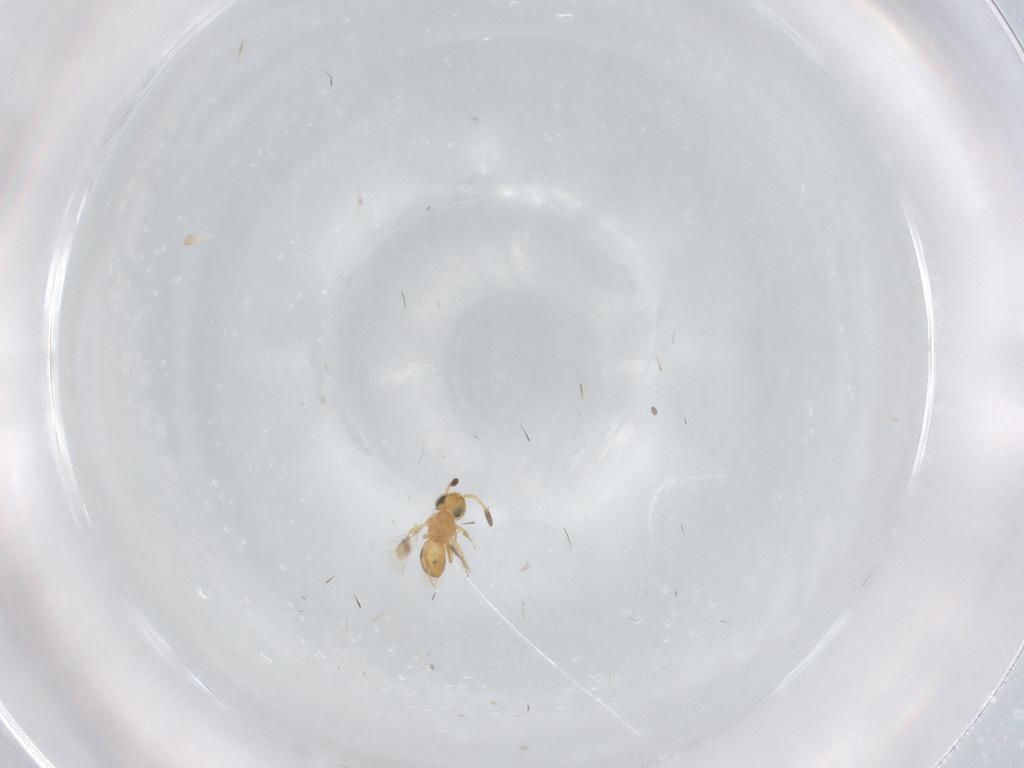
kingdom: Animalia
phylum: Arthropoda
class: Insecta
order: Hymenoptera
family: Scelionidae
